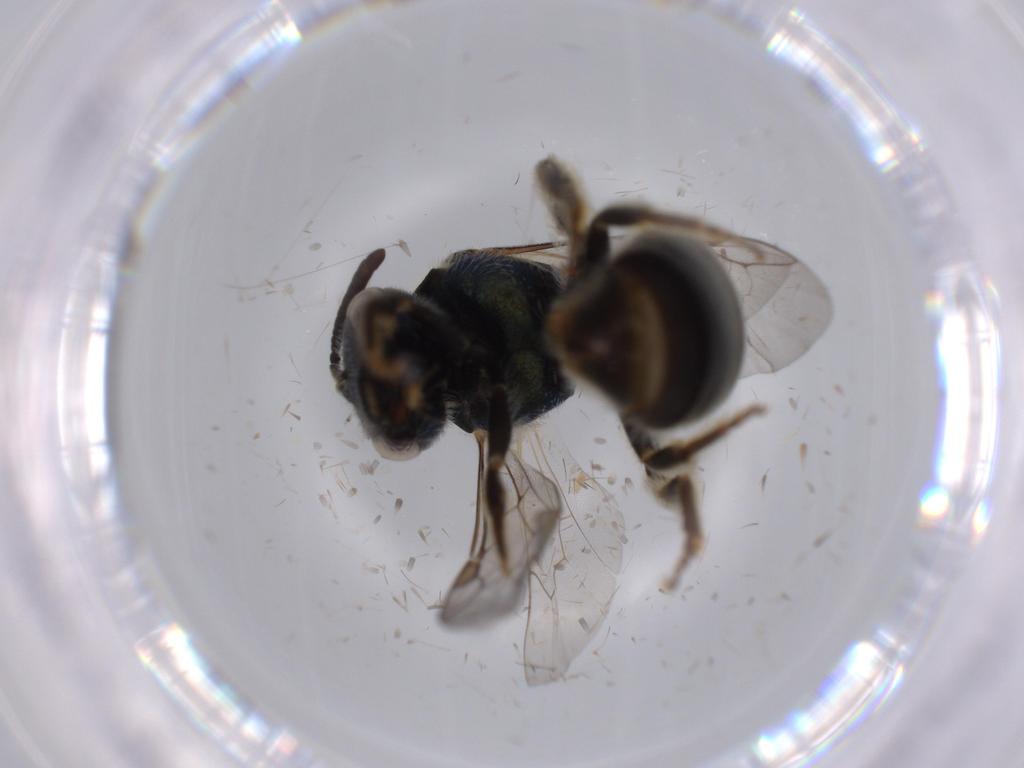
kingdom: Animalia
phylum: Arthropoda
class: Insecta
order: Hymenoptera
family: Halictidae
